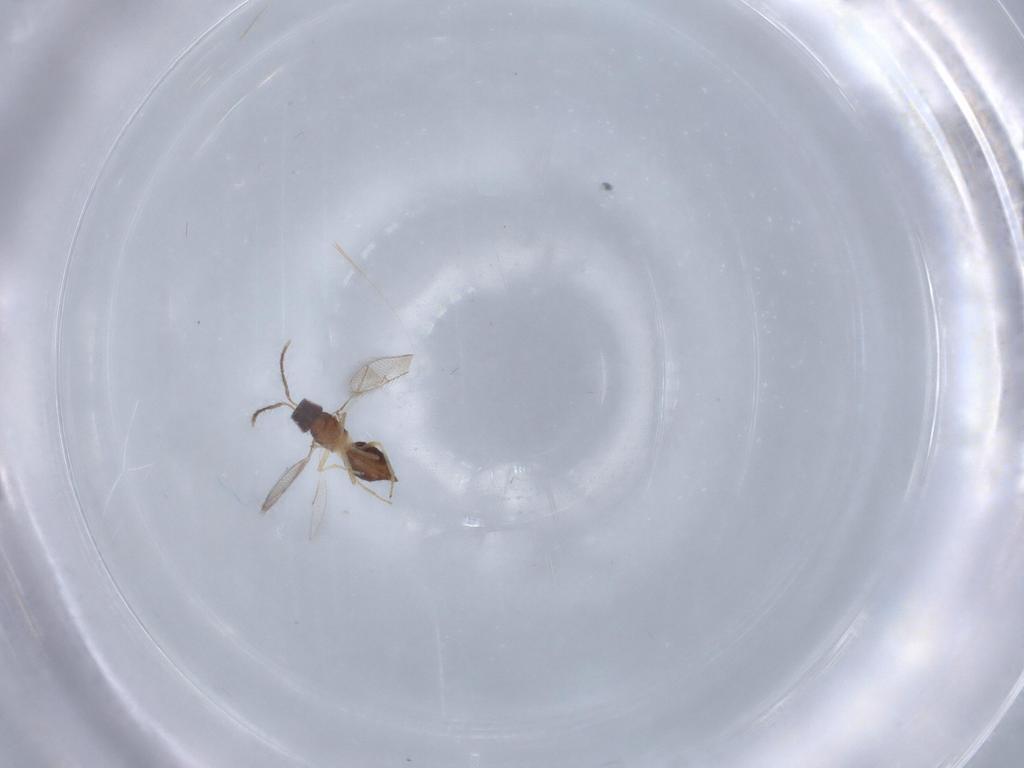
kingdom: Animalia
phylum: Arthropoda
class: Insecta
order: Hymenoptera
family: Eulophidae
